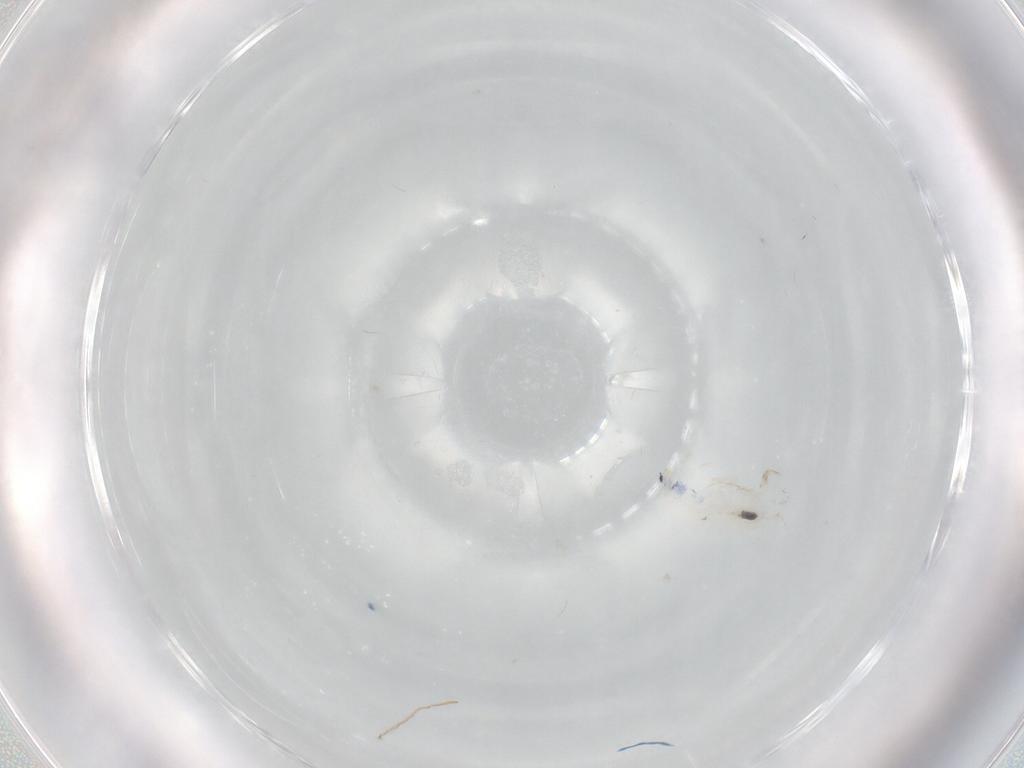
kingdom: Animalia
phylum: Arthropoda
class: Collembola
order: Entomobryomorpha
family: Entomobryidae
